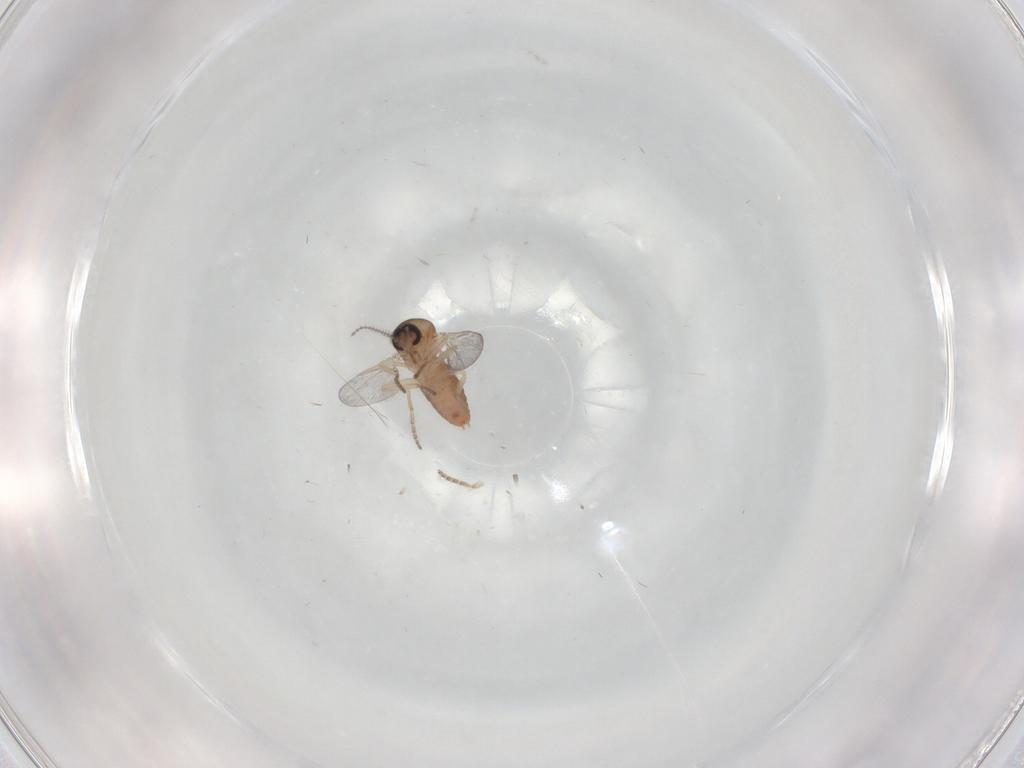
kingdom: Animalia
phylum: Arthropoda
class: Insecta
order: Diptera
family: Ceratopogonidae
